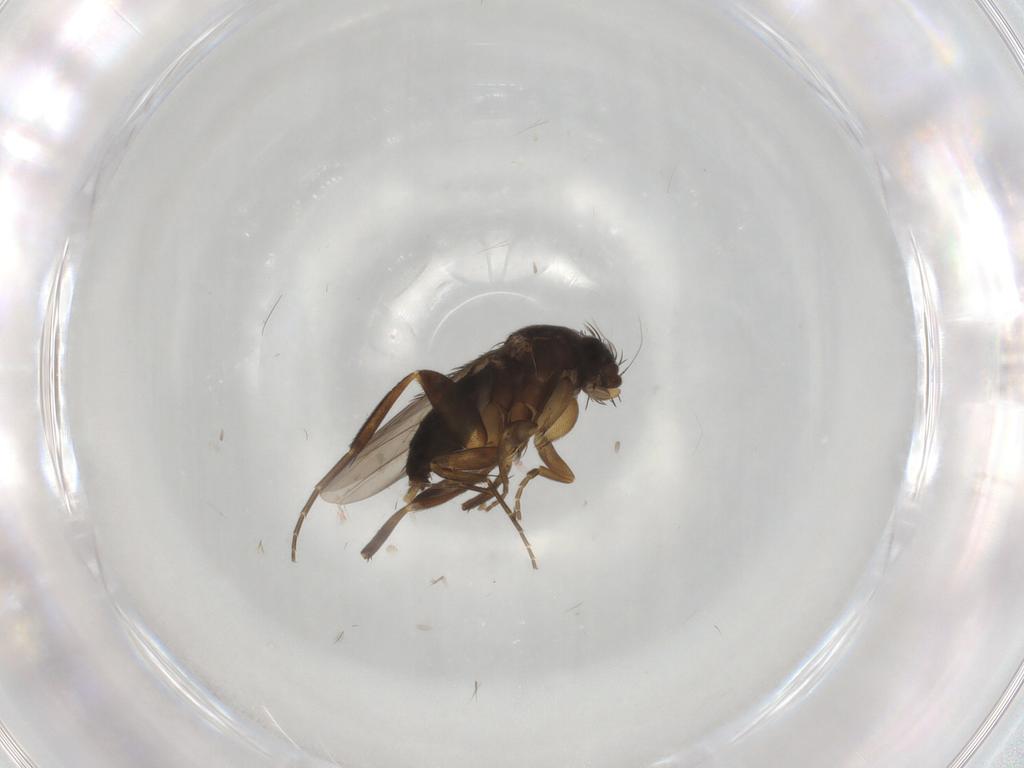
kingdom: Animalia
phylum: Arthropoda
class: Insecta
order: Diptera
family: Phoridae
